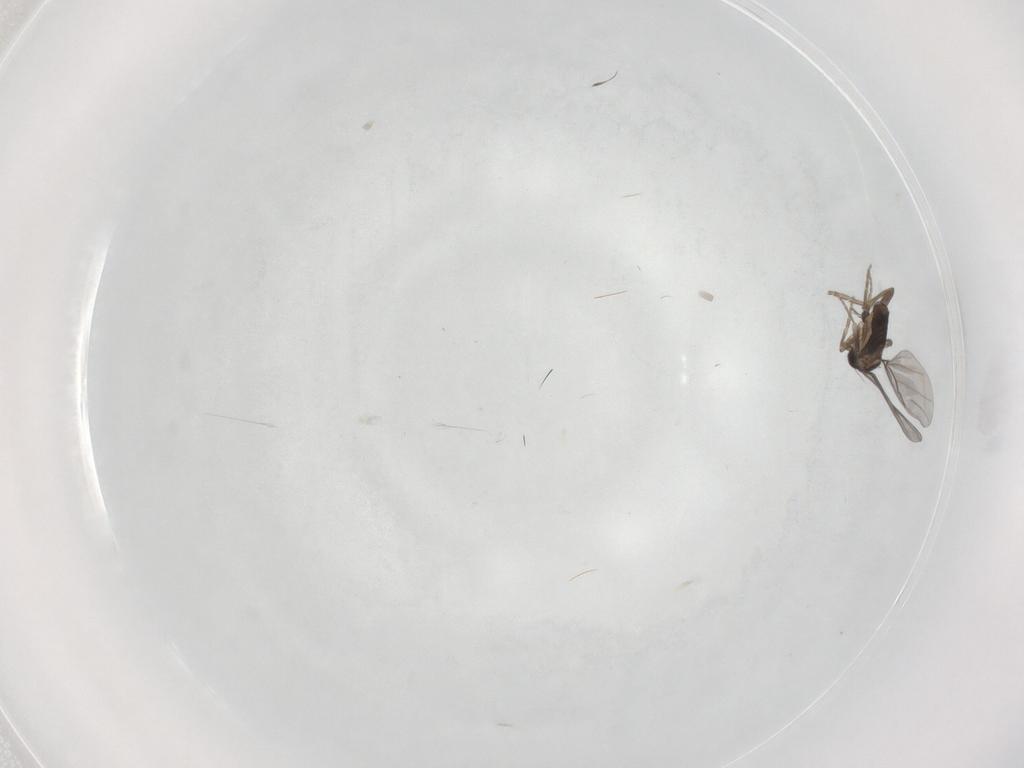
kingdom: Animalia
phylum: Arthropoda
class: Insecta
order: Diptera
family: Phoridae
